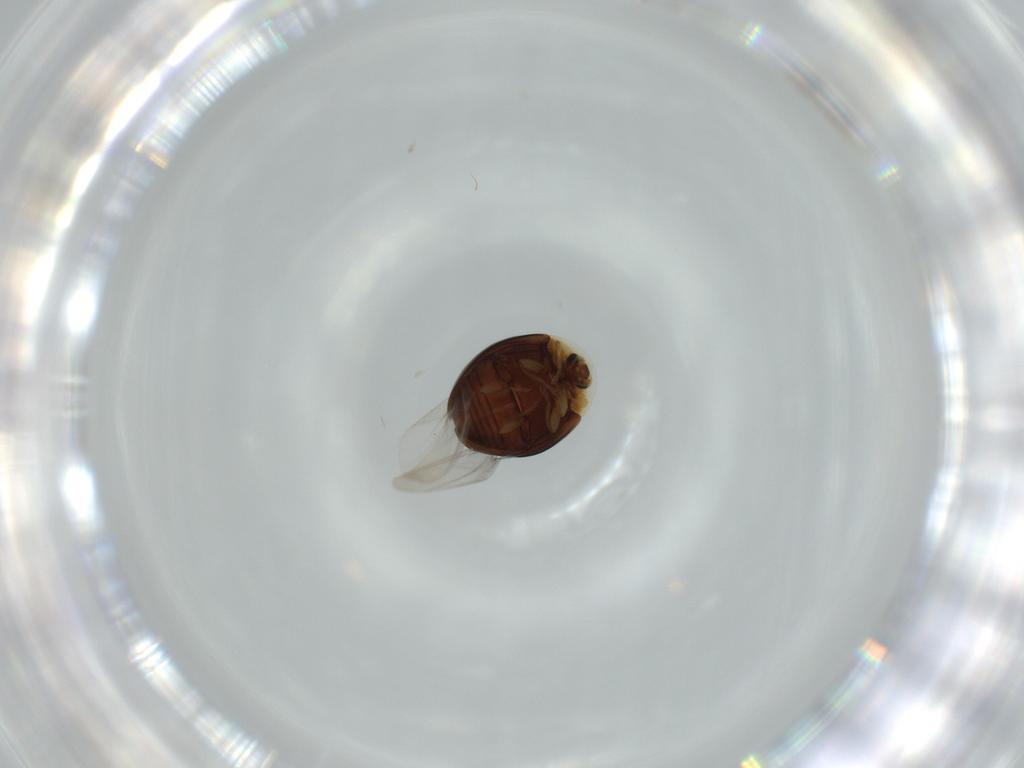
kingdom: Animalia
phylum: Arthropoda
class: Insecta
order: Coleoptera
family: Corylophidae
